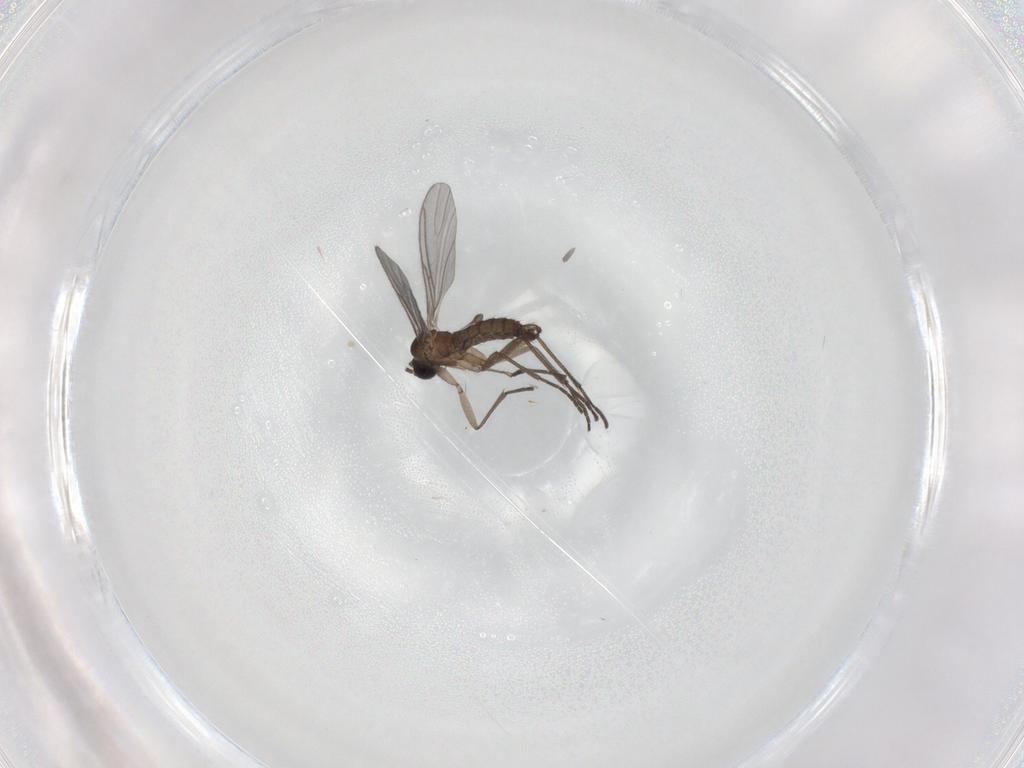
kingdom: Animalia
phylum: Arthropoda
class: Insecta
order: Diptera
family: Sciaridae
